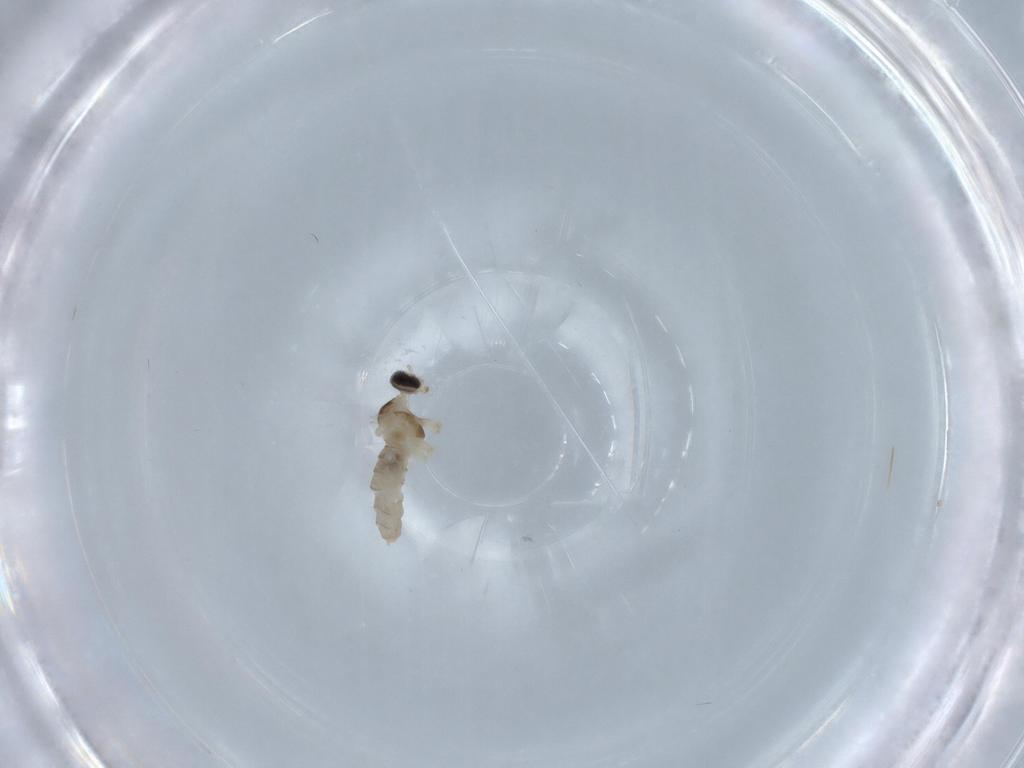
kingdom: Animalia
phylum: Arthropoda
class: Insecta
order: Diptera
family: Cecidomyiidae
